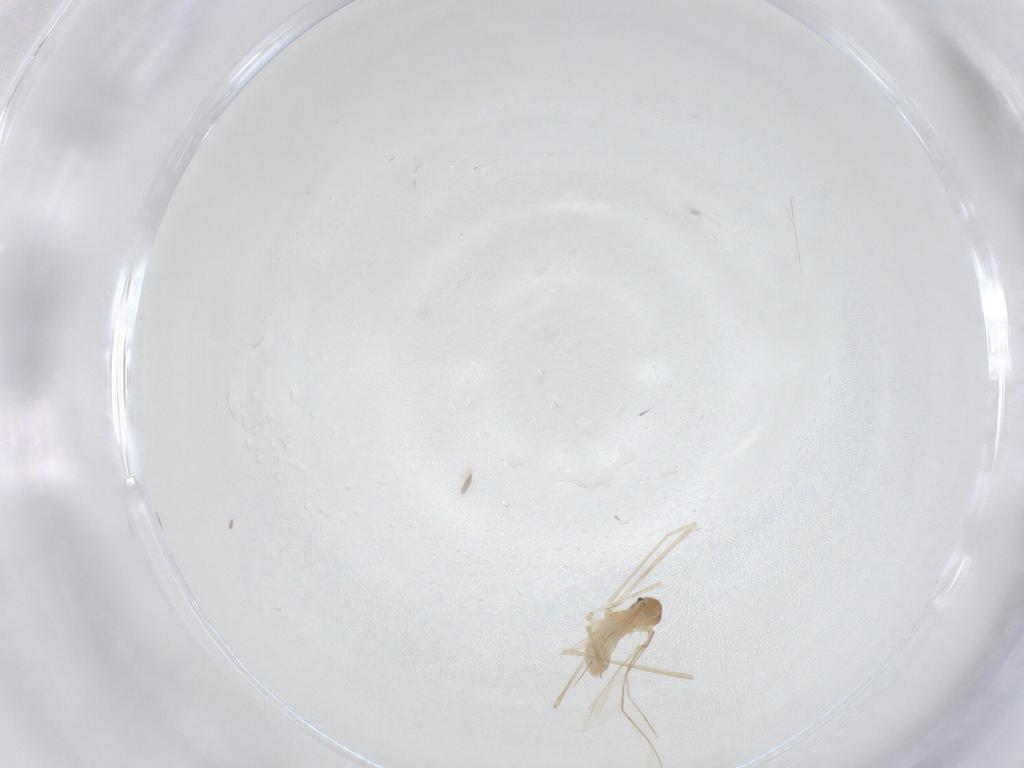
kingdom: Animalia
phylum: Arthropoda
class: Insecta
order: Diptera
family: Cecidomyiidae
